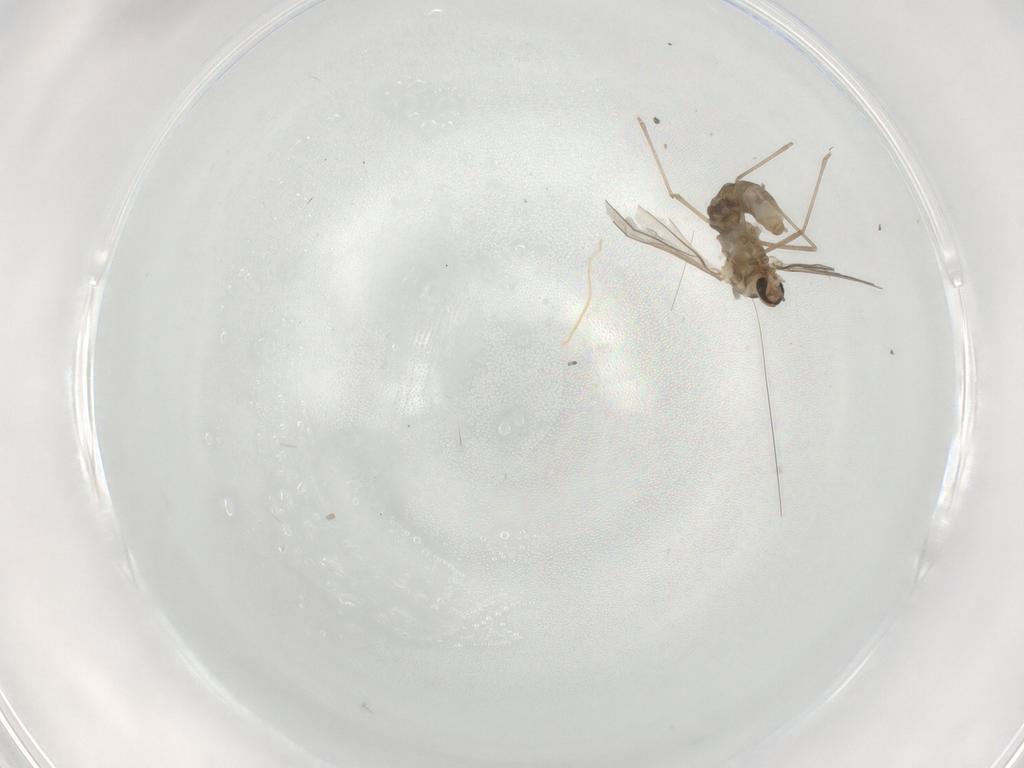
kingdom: Animalia
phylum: Arthropoda
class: Insecta
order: Diptera
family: Cecidomyiidae
